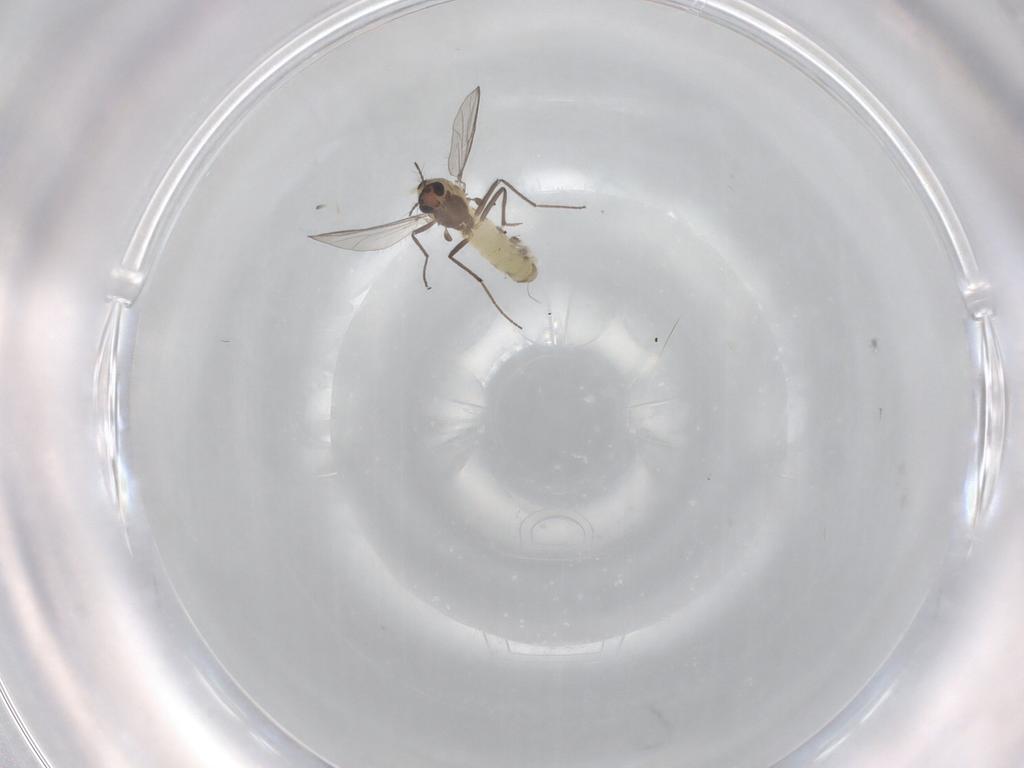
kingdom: Animalia
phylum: Arthropoda
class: Insecta
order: Diptera
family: Chironomidae
